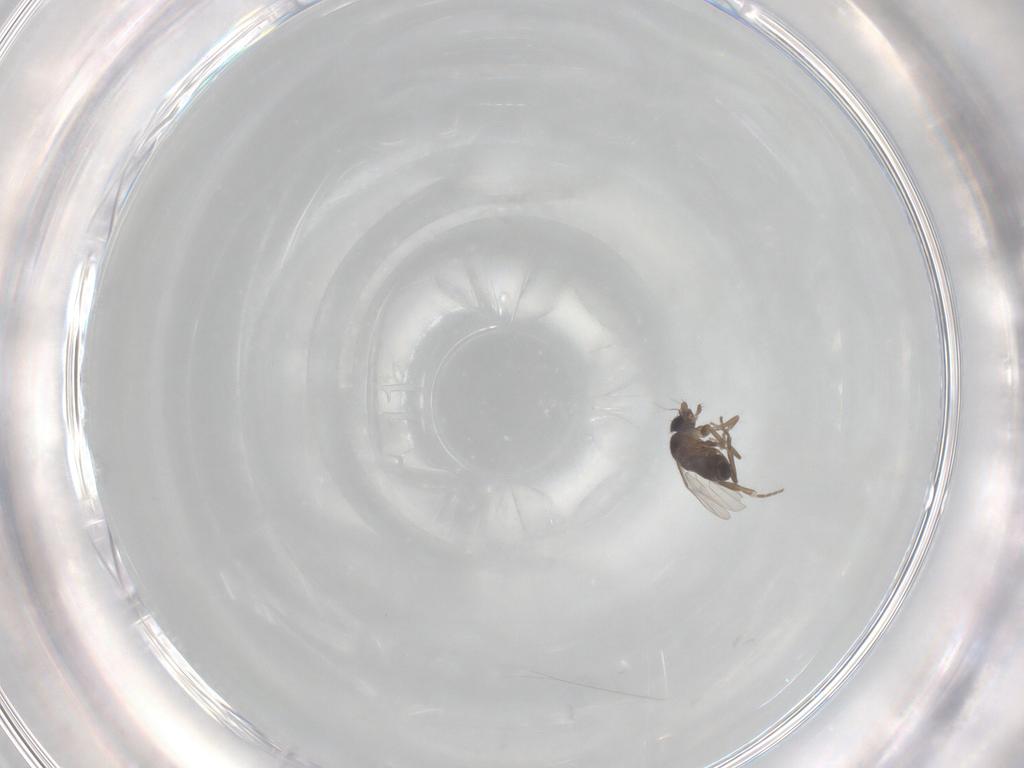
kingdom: Animalia
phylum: Arthropoda
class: Insecta
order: Diptera
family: Phoridae
